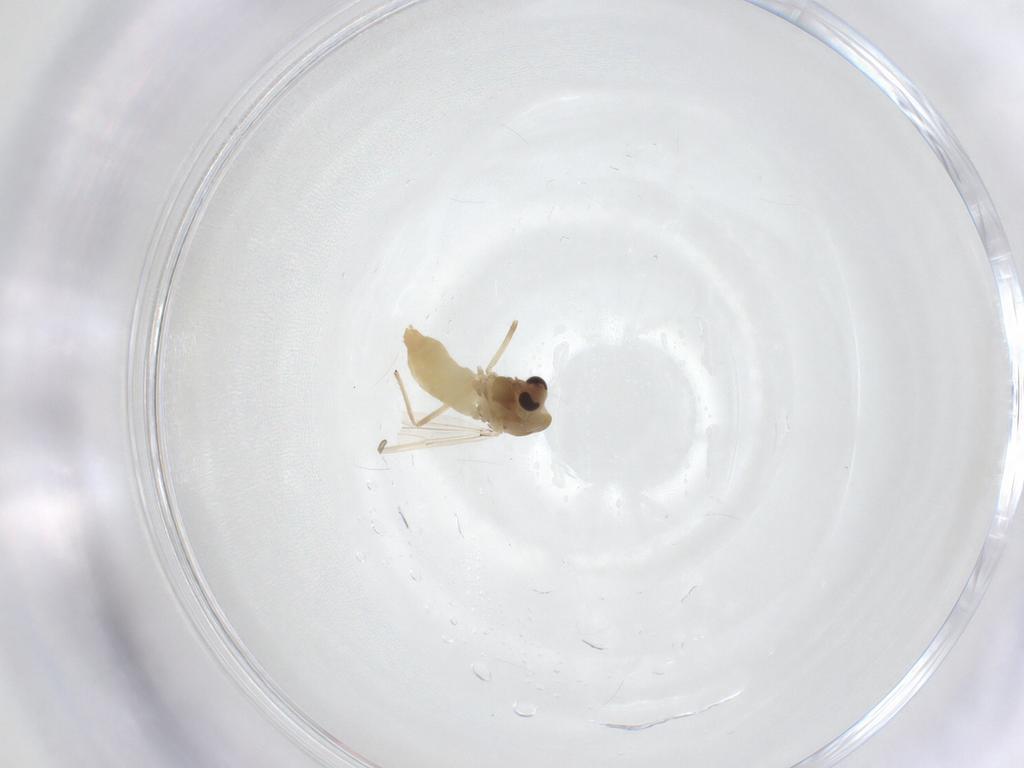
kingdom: Animalia
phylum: Arthropoda
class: Insecta
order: Diptera
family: Chironomidae
